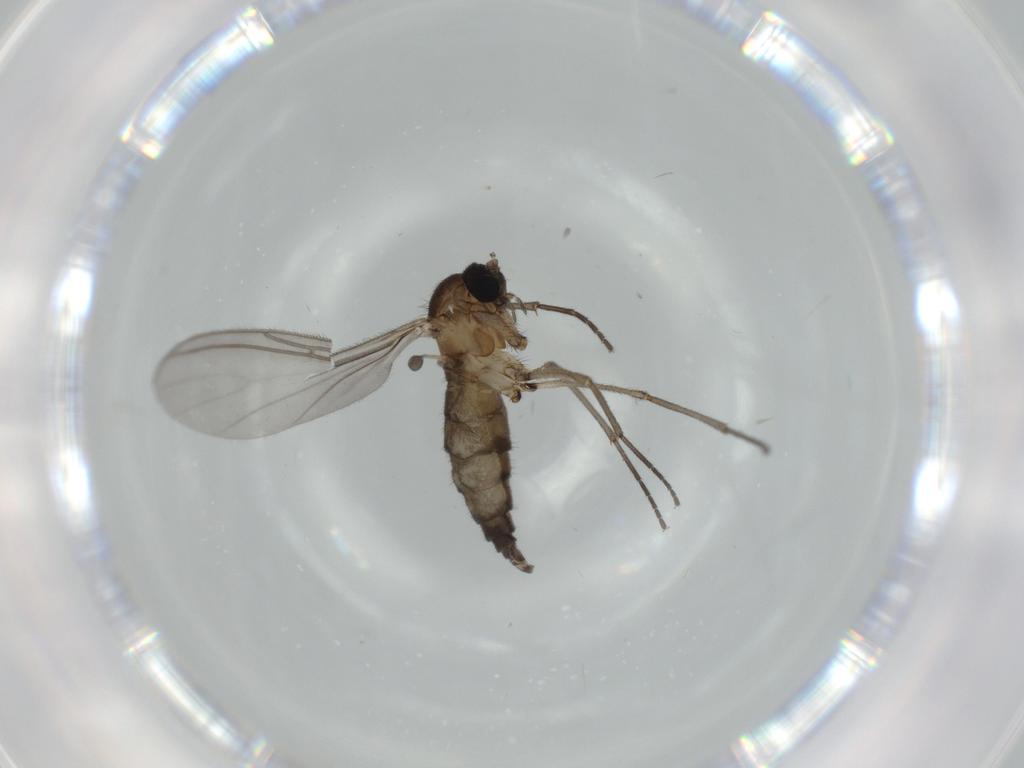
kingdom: Animalia
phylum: Arthropoda
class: Insecta
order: Diptera
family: Sciaridae
